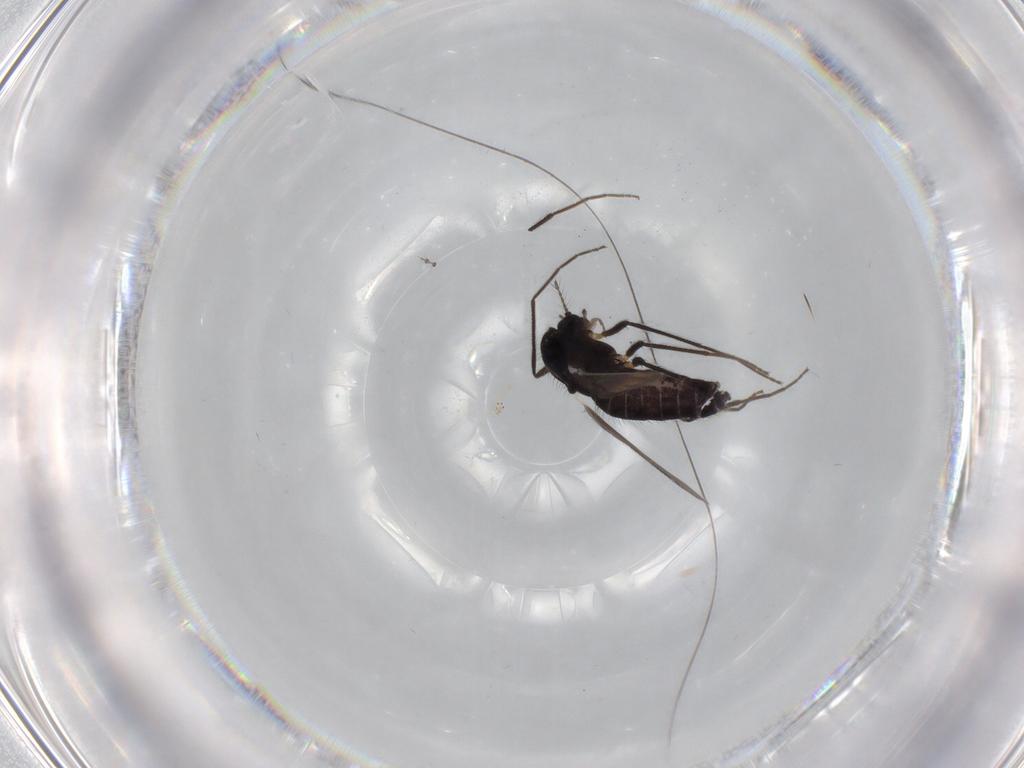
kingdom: Animalia
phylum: Arthropoda
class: Insecta
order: Diptera
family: Chironomidae
